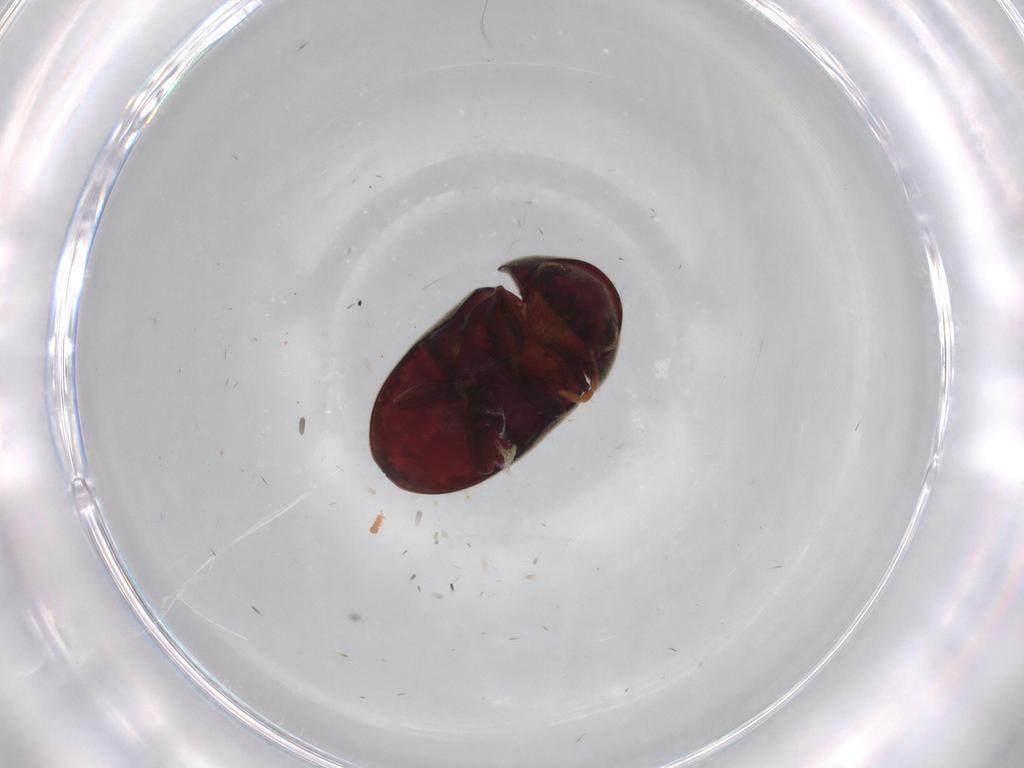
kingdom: Animalia
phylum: Arthropoda
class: Insecta
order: Coleoptera
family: Ptinidae
